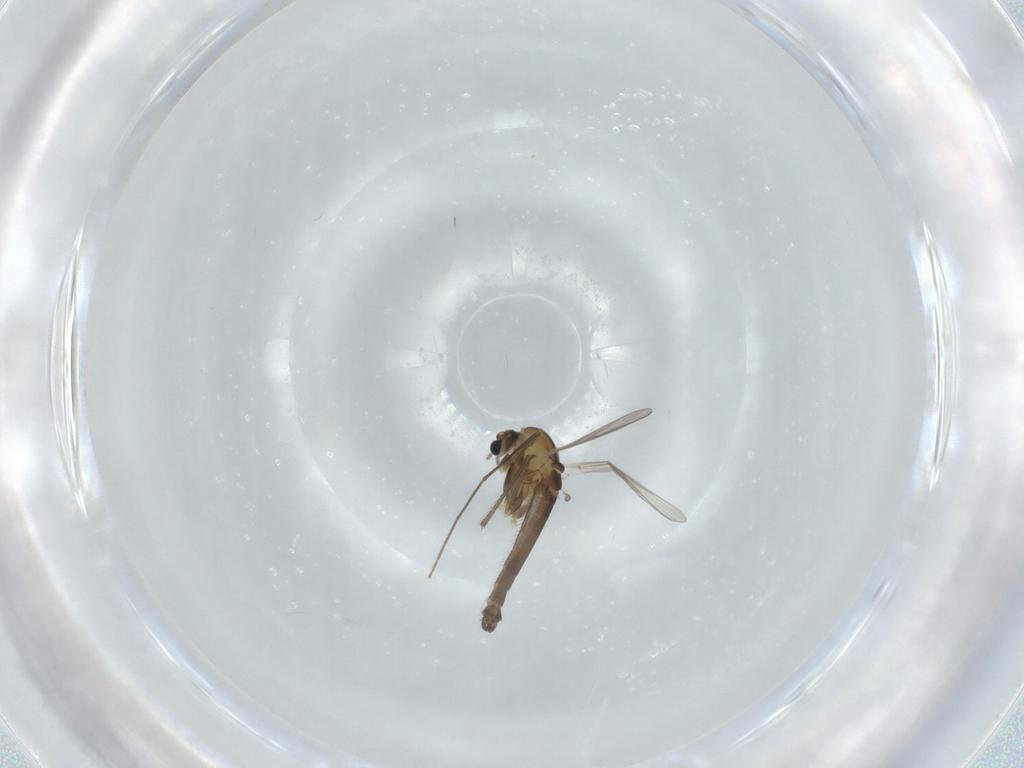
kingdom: Animalia
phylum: Arthropoda
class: Insecta
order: Diptera
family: Chironomidae
